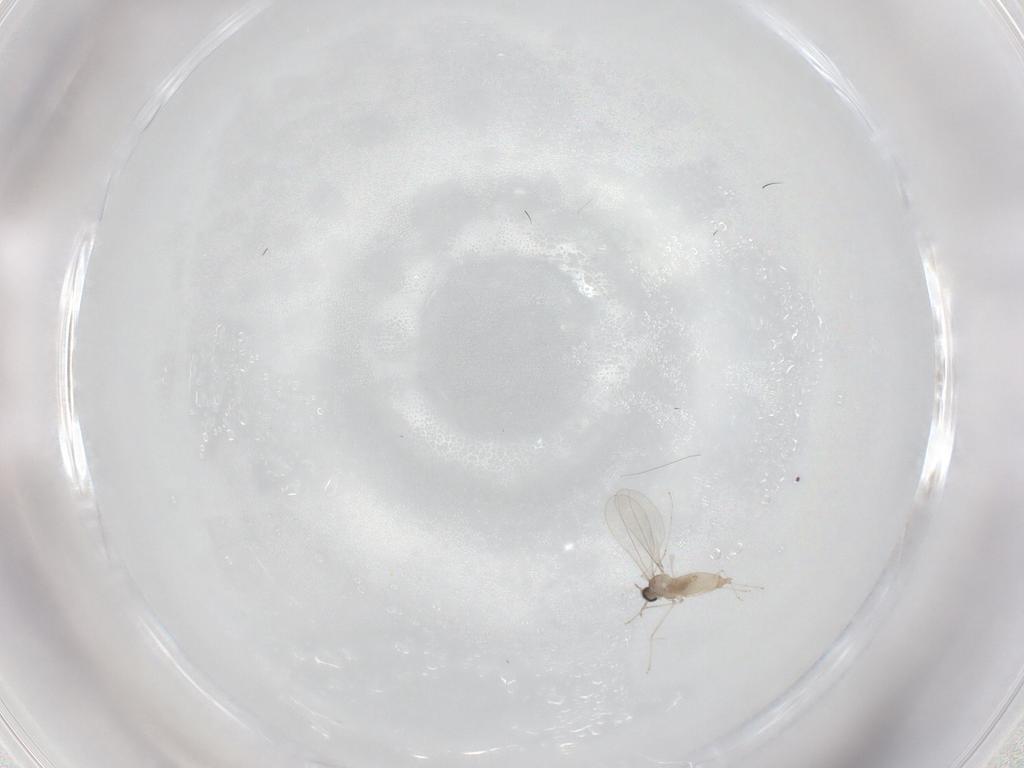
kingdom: Animalia
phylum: Arthropoda
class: Insecta
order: Diptera
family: Cecidomyiidae
